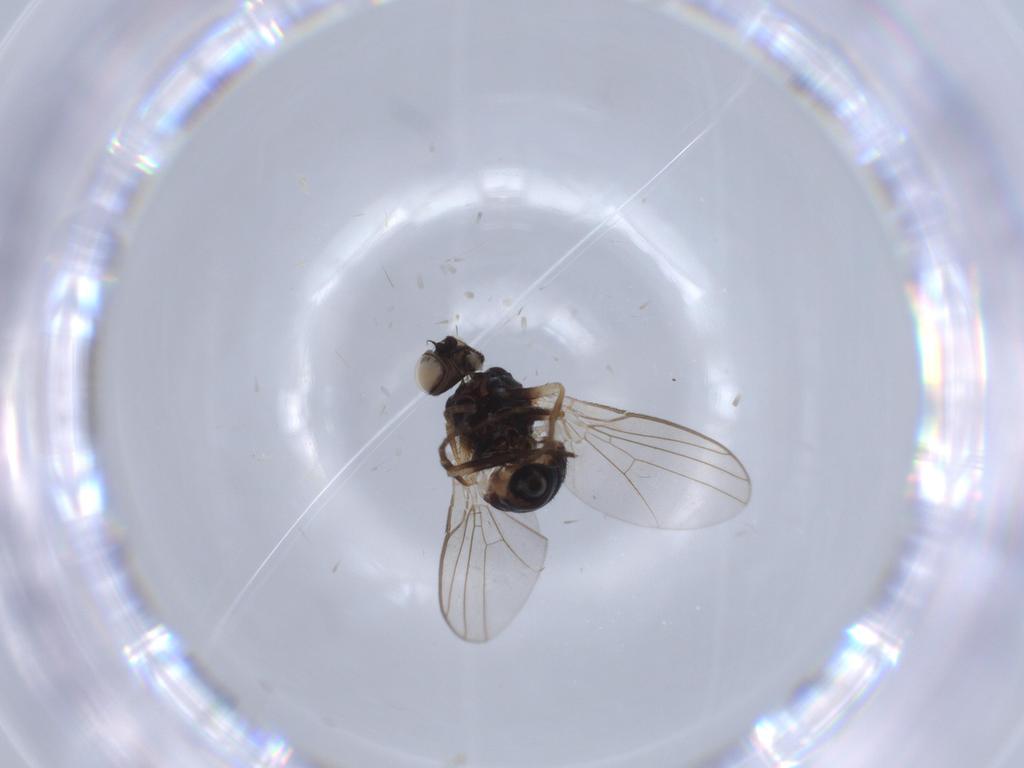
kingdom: Animalia
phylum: Arthropoda
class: Insecta
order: Diptera
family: Agromyzidae
